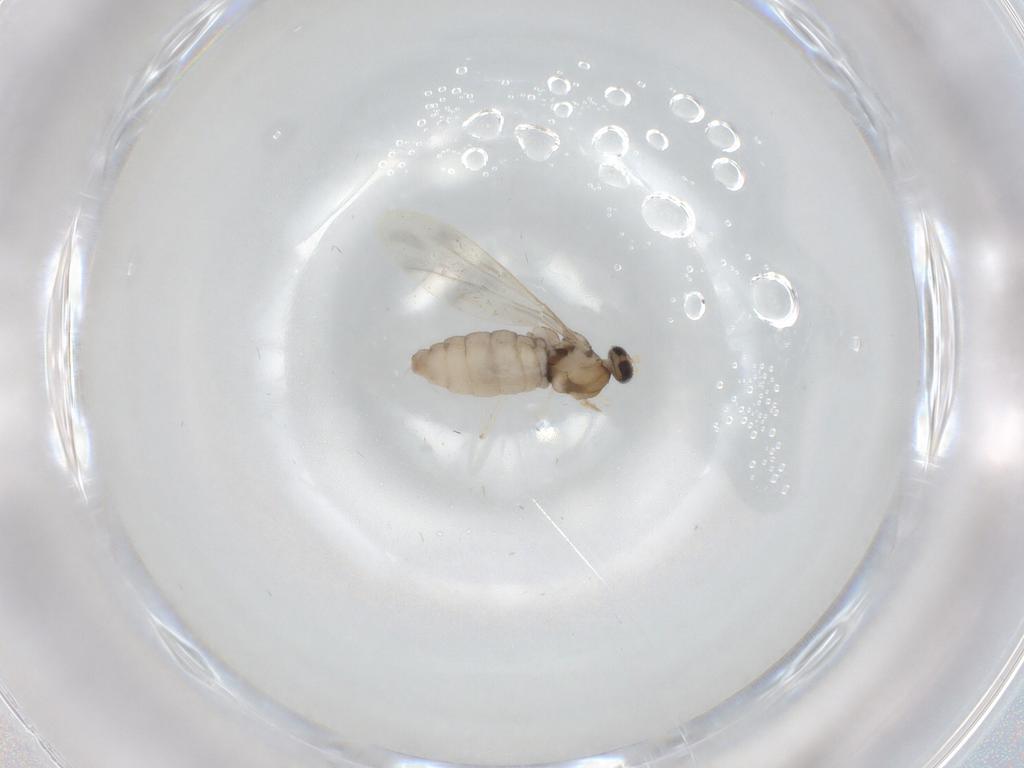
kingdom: Animalia
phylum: Arthropoda
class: Insecta
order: Diptera
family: Cecidomyiidae
